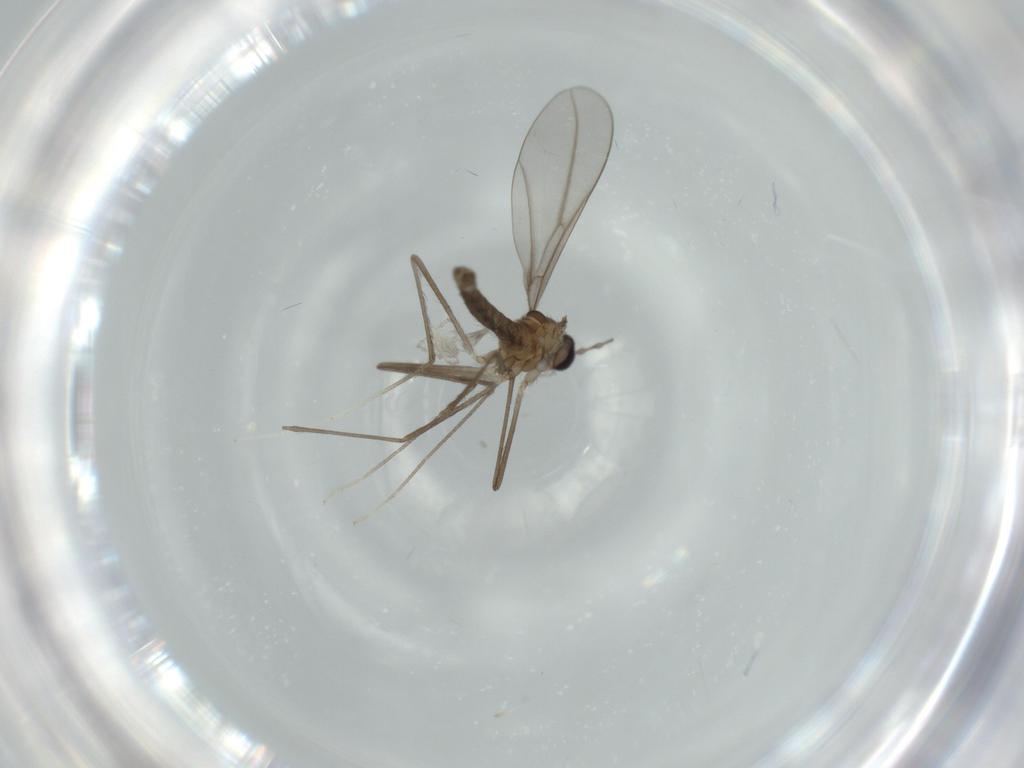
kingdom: Animalia
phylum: Arthropoda
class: Insecta
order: Diptera
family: Cecidomyiidae
